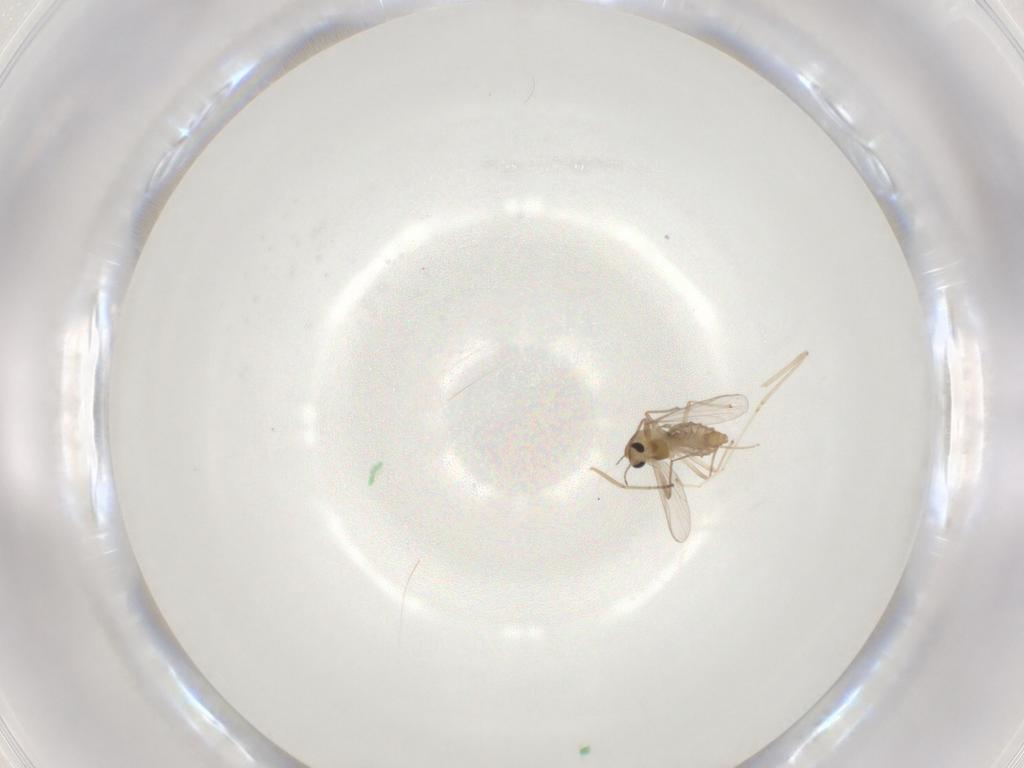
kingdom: Animalia
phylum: Arthropoda
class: Insecta
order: Diptera
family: Chironomidae
